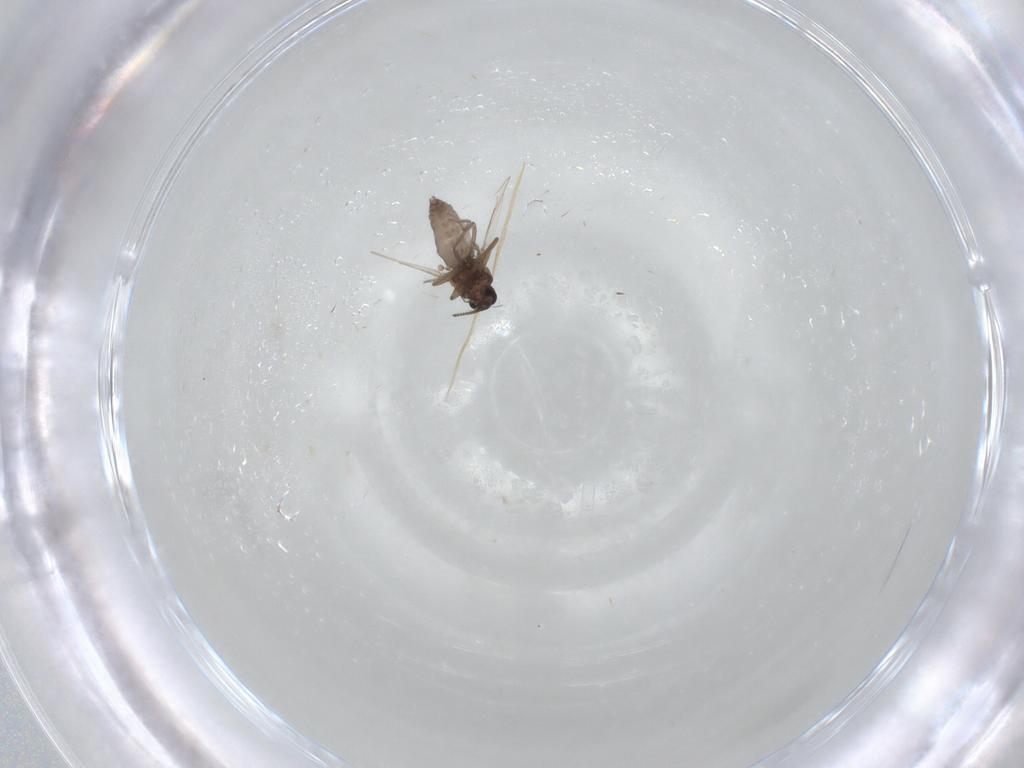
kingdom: Animalia
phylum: Arthropoda
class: Insecta
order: Diptera
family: Ceratopogonidae
